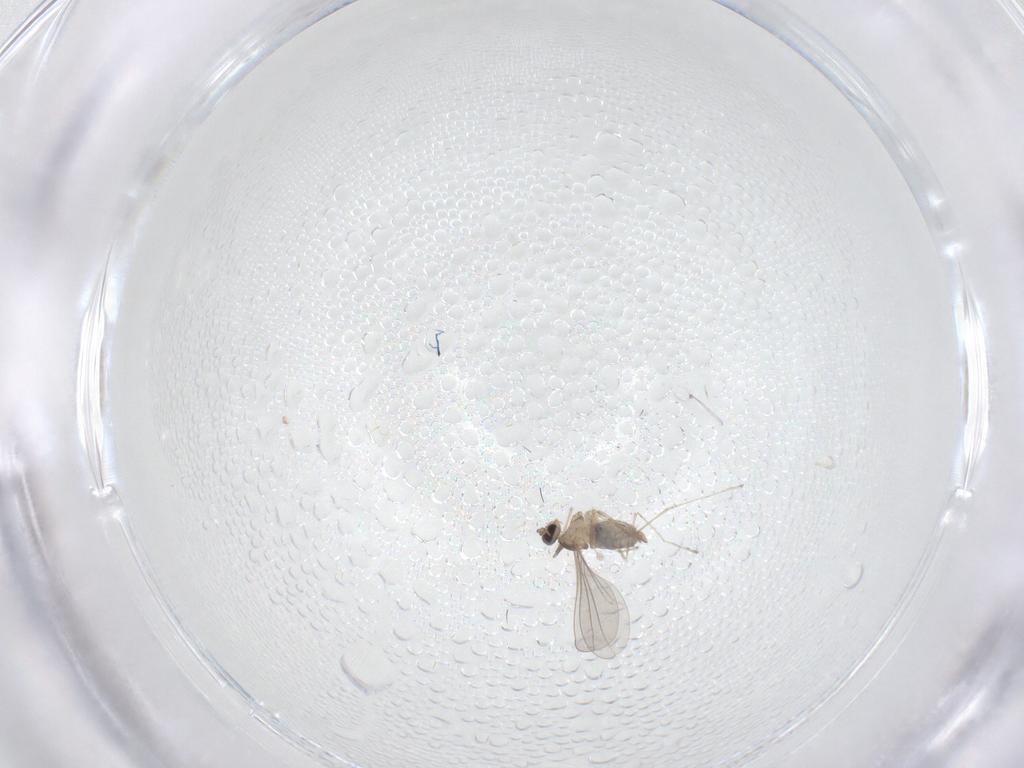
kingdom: Animalia
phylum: Arthropoda
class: Insecta
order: Diptera
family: Cecidomyiidae
